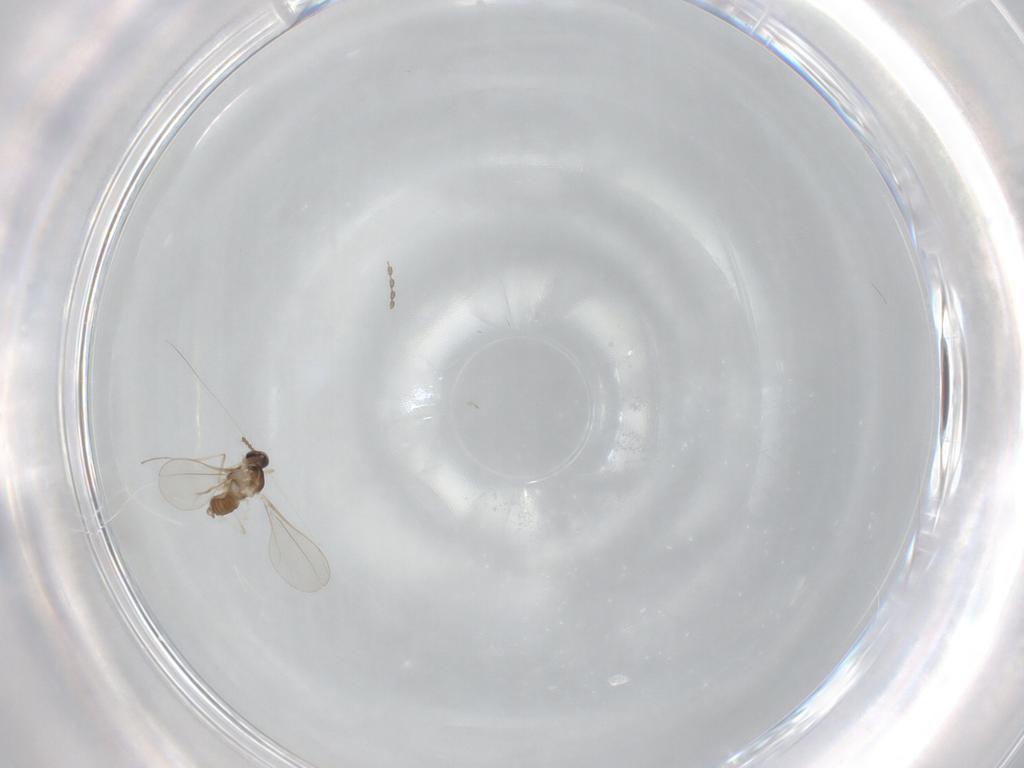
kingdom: Animalia
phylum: Arthropoda
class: Insecta
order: Diptera
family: Cecidomyiidae
